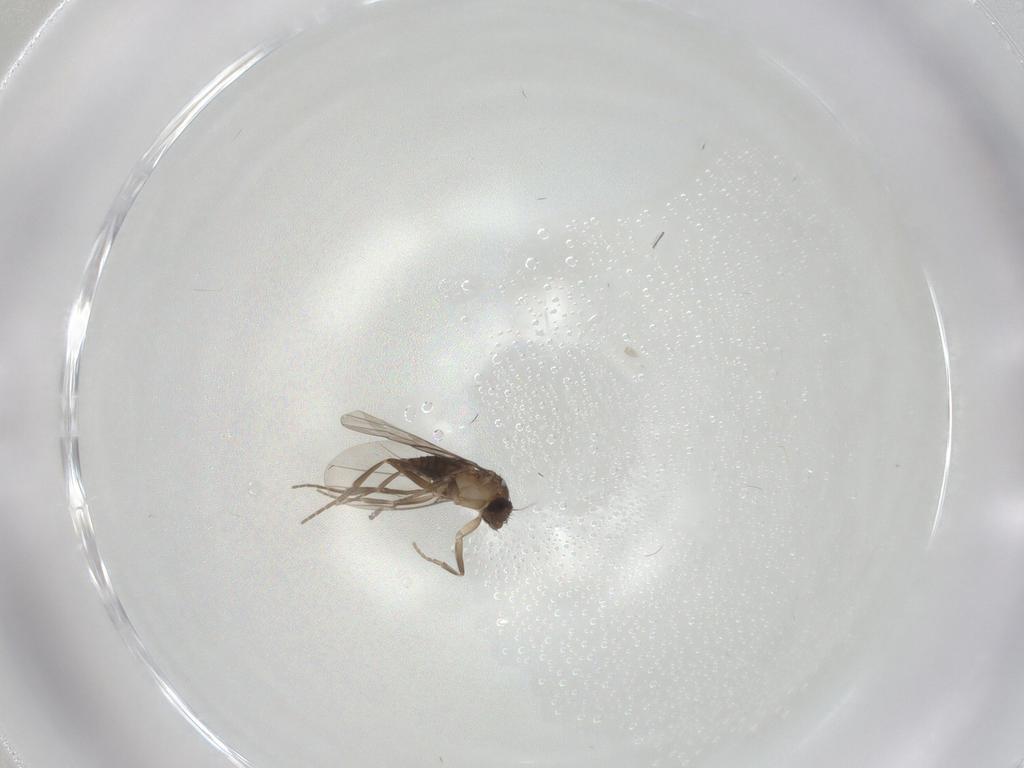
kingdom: Animalia
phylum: Arthropoda
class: Insecta
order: Diptera
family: Phoridae
